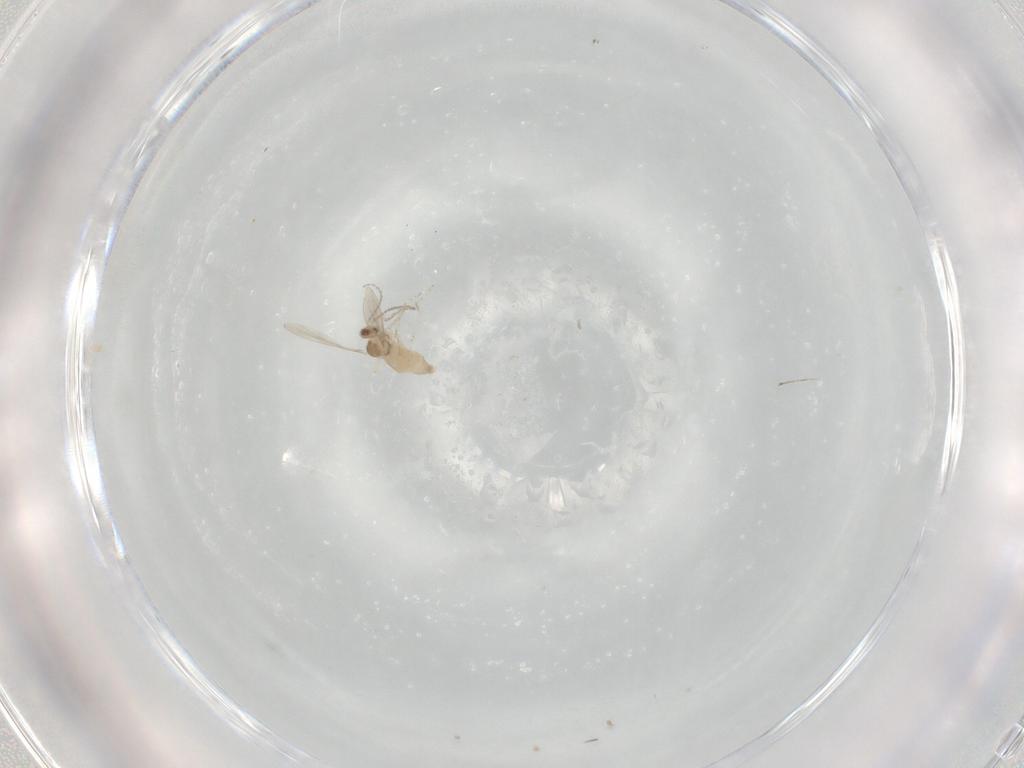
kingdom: Animalia
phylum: Arthropoda
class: Insecta
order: Diptera
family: Cecidomyiidae
